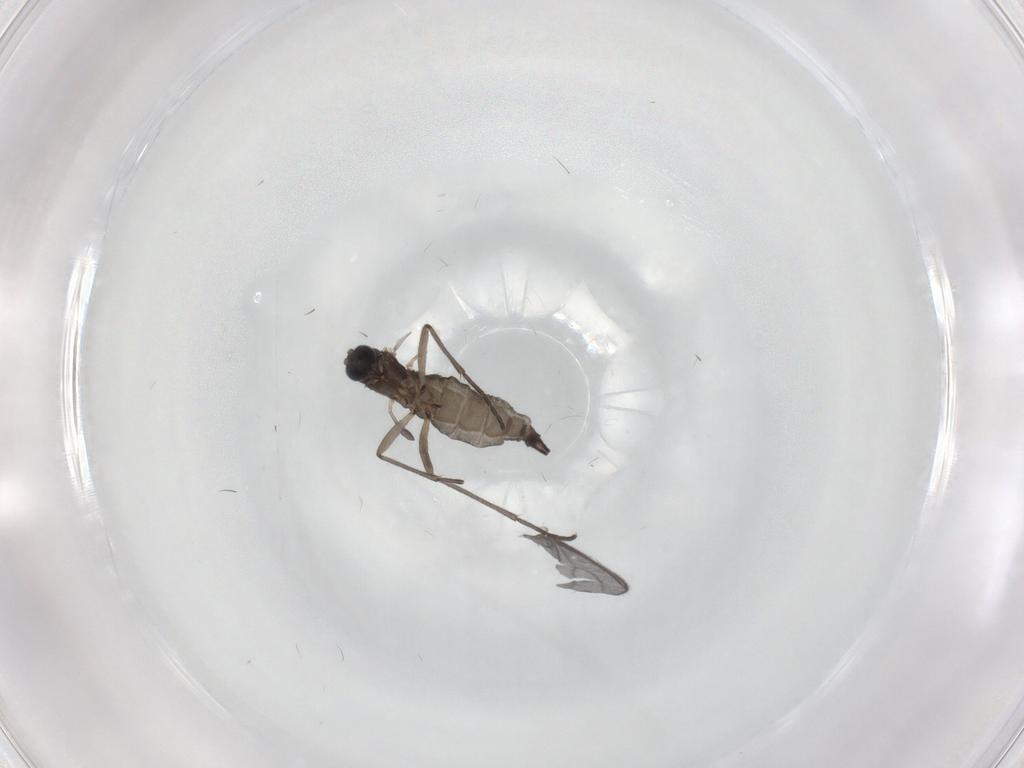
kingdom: Animalia
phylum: Arthropoda
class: Insecta
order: Diptera
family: Sciaridae
